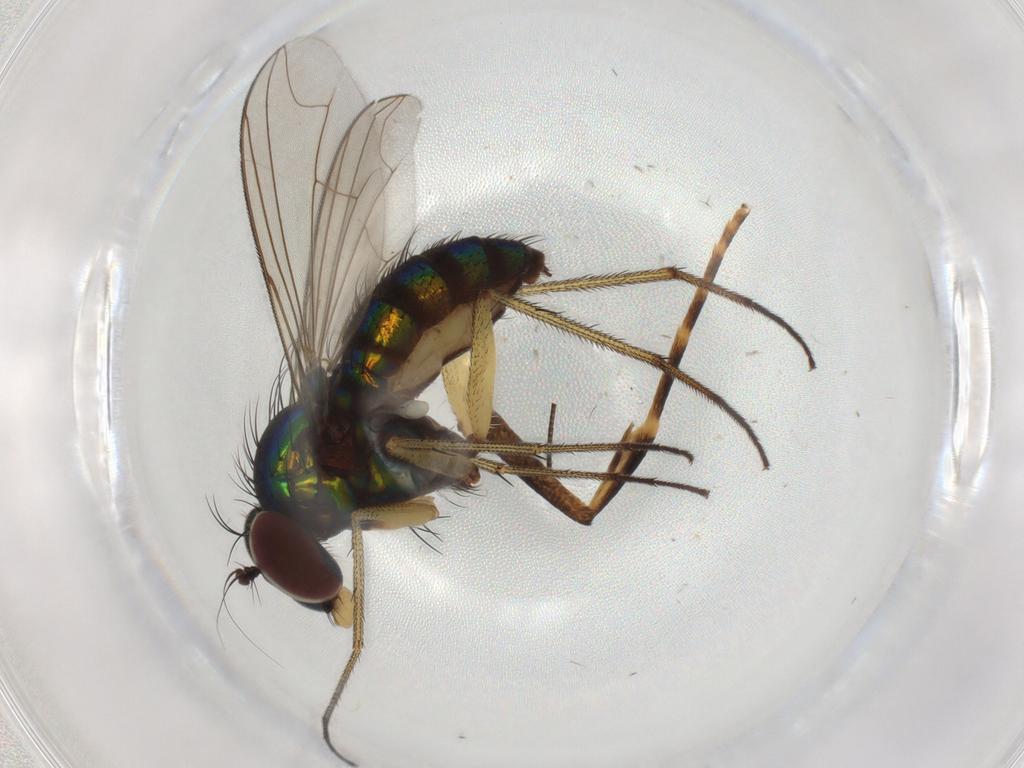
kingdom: Animalia
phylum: Arthropoda
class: Insecta
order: Diptera
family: Dolichopodidae
